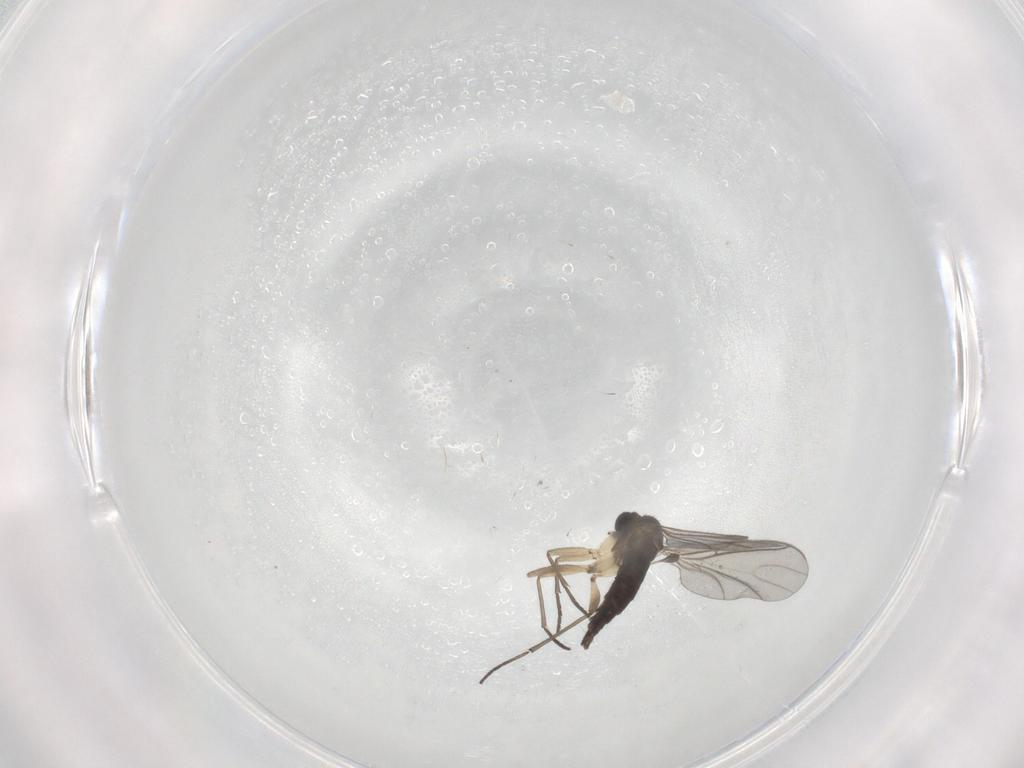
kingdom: Animalia
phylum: Arthropoda
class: Insecta
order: Diptera
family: Sciaridae
